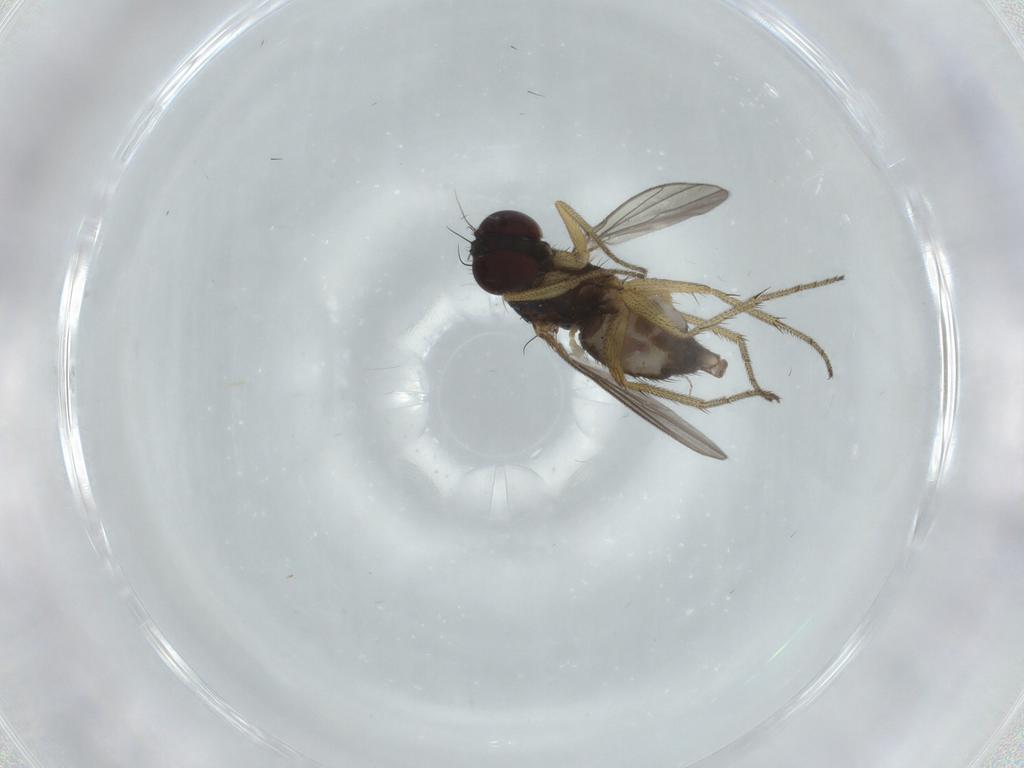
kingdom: Animalia
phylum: Arthropoda
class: Insecta
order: Diptera
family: Dolichopodidae
